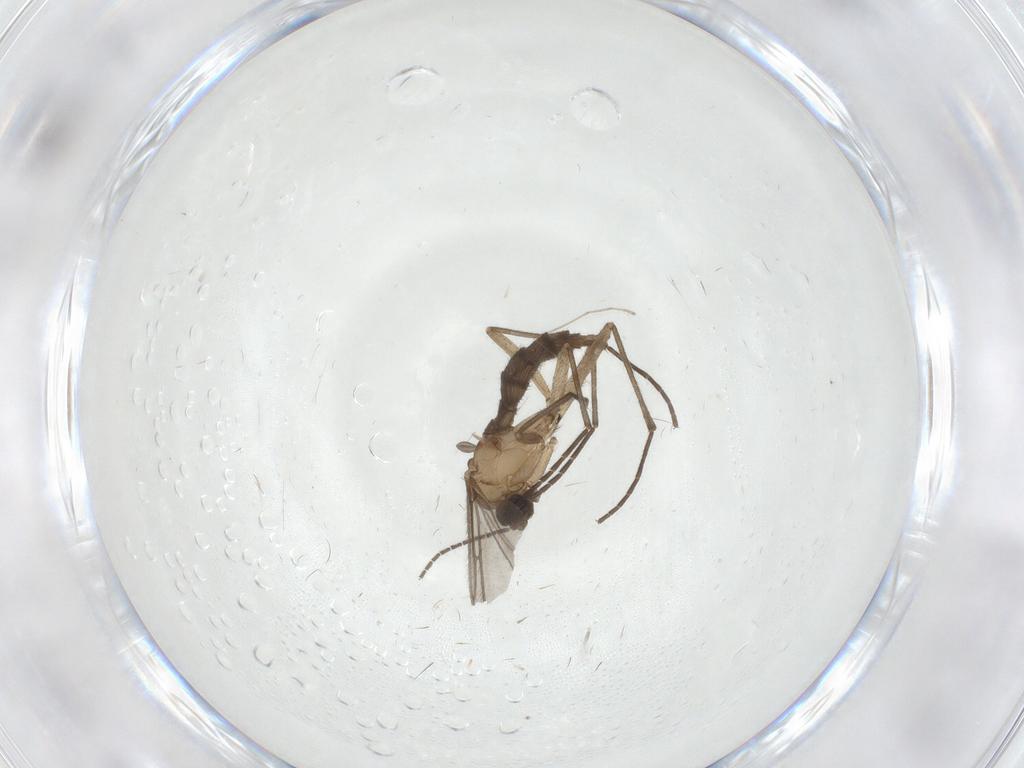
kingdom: Animalia
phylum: Arthropoda
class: Insecta
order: Diptera
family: Sciaridae
